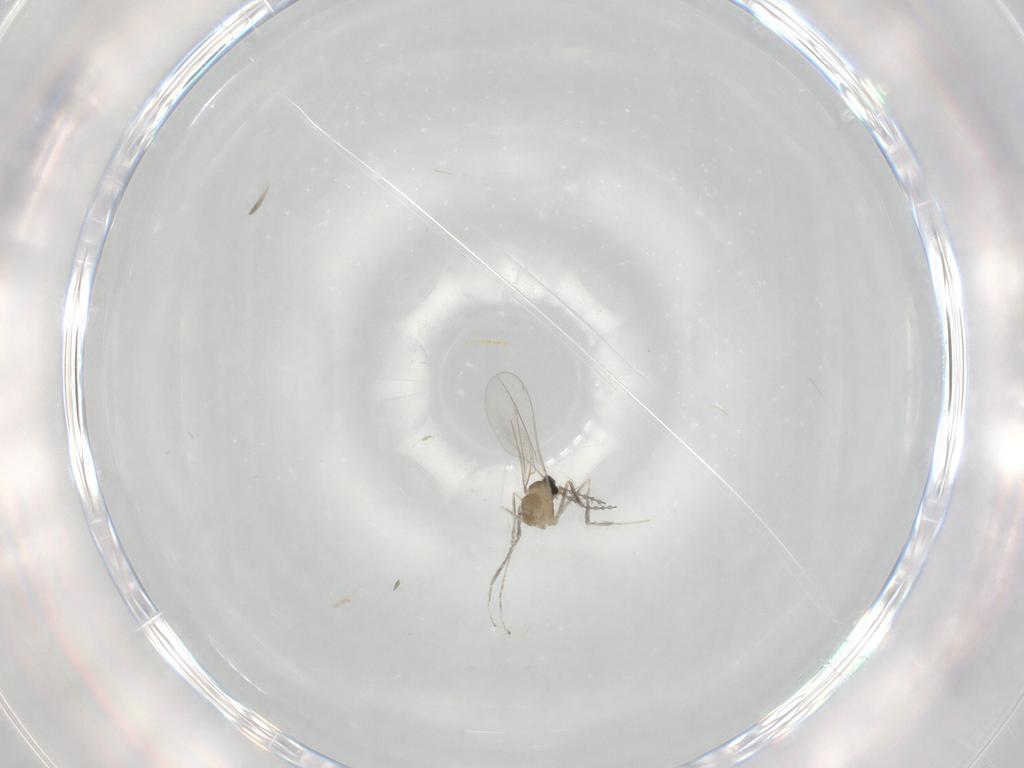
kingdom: Animalia
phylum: Arthropoda
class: Insecta
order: Diptera
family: Cecidomyiidae
